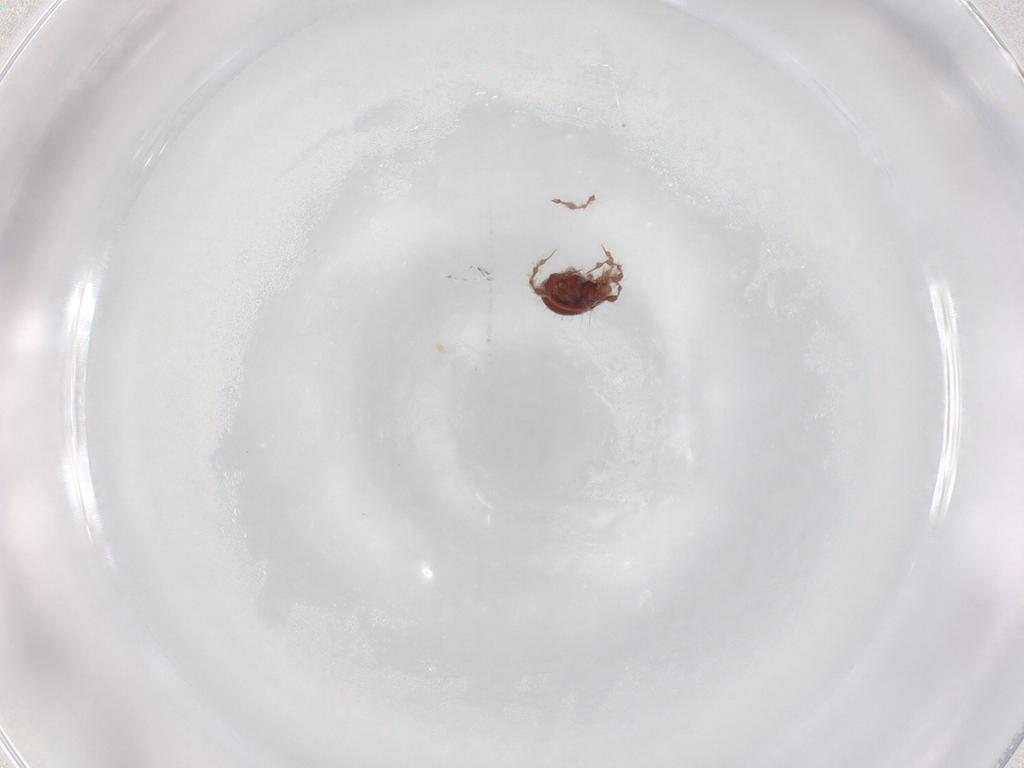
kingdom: Animalia
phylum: Arthropoda
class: Arachnida
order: Sarcoptiformes
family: Damaeidae
